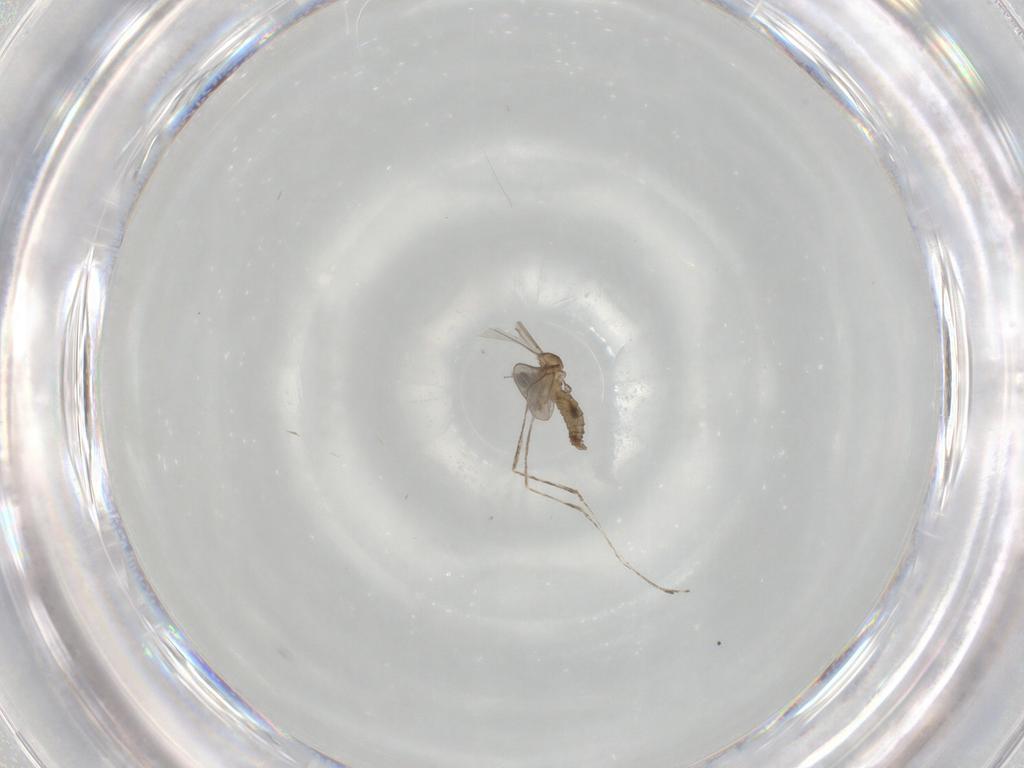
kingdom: Animalia
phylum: Arthropoda
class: Insecta
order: Diptera
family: Cecidomyiidae
